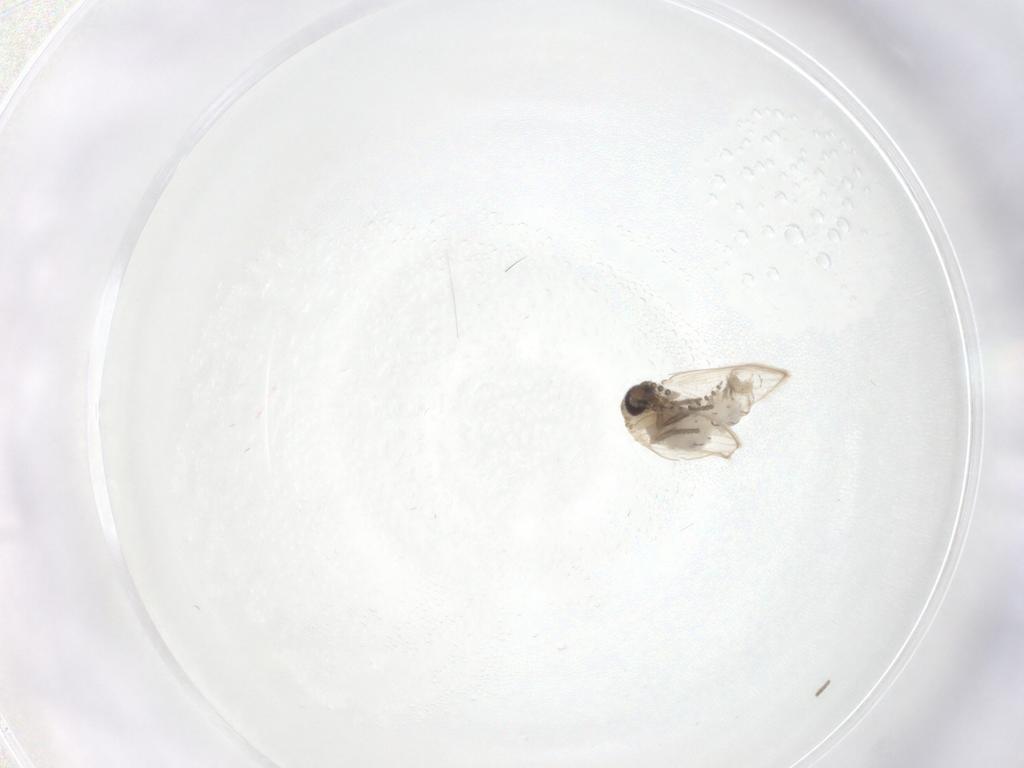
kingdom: Animalia
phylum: Arthropoda
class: Insecta
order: Diptera
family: Psychodidae
